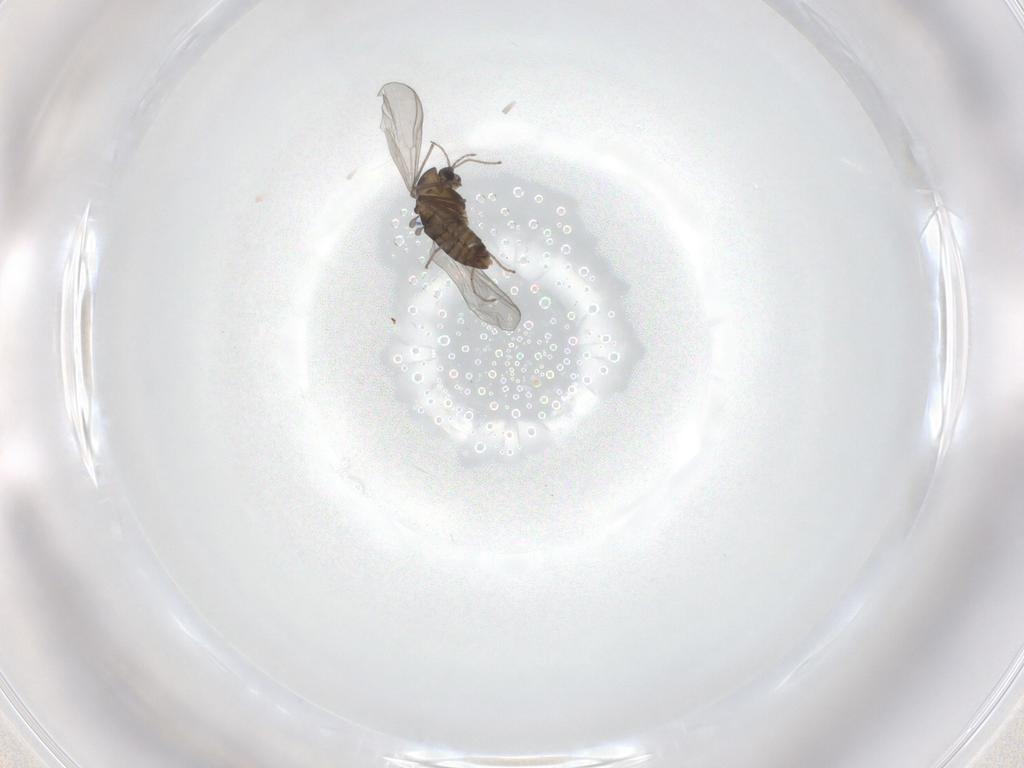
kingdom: Animalia
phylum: Arthropoda
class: Insecta
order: Diptera
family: Chironomidae
